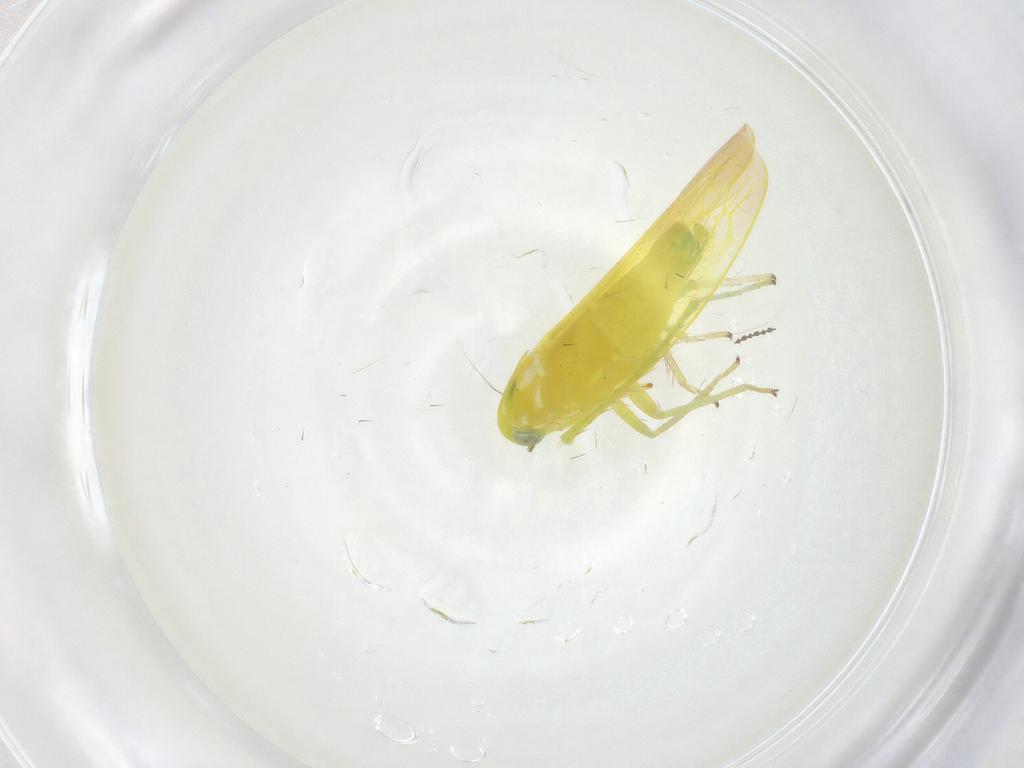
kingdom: Animalia
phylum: Arthropoda
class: Insecta
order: Hemiptera
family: Cicadellidae
